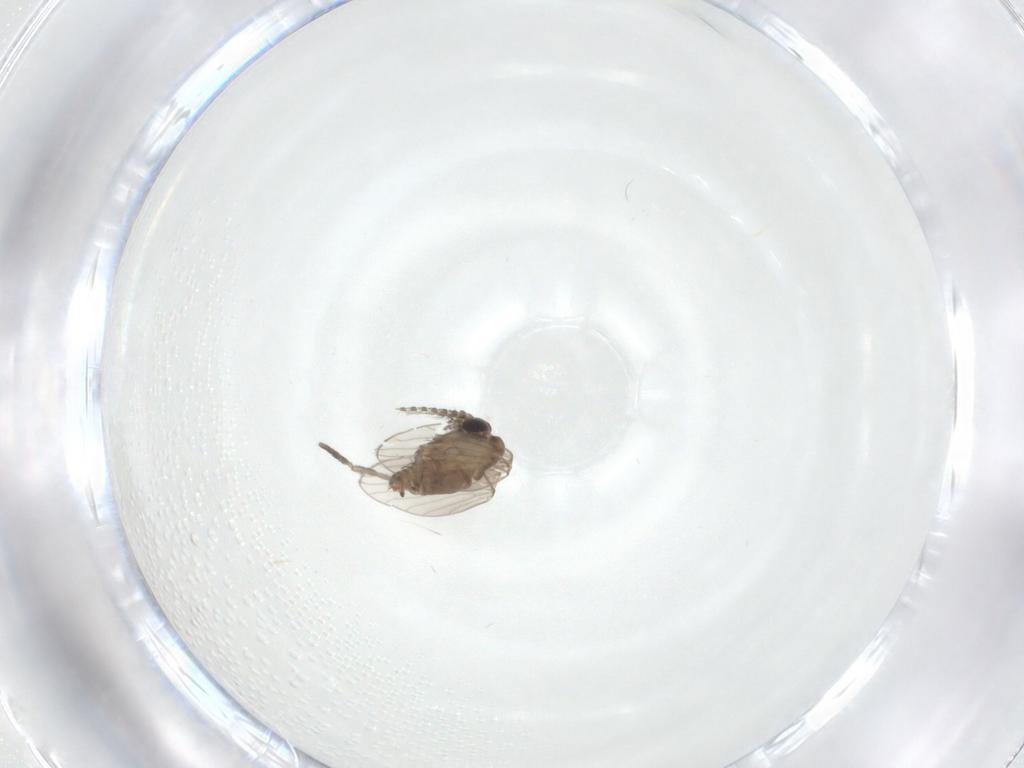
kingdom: Animalia
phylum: Arthropoda
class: Insecta
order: Diptera
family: Psychodidae
